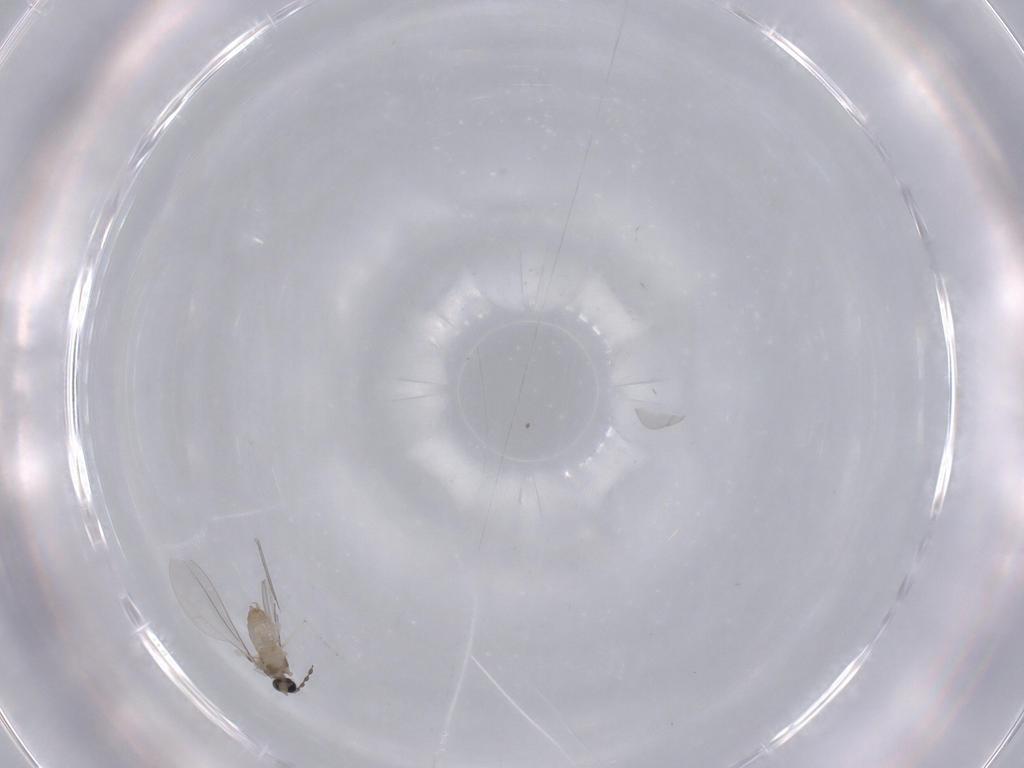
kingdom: Animalia
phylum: Arthropoda
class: Insecta
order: Diptera
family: Cecidomyiidae
